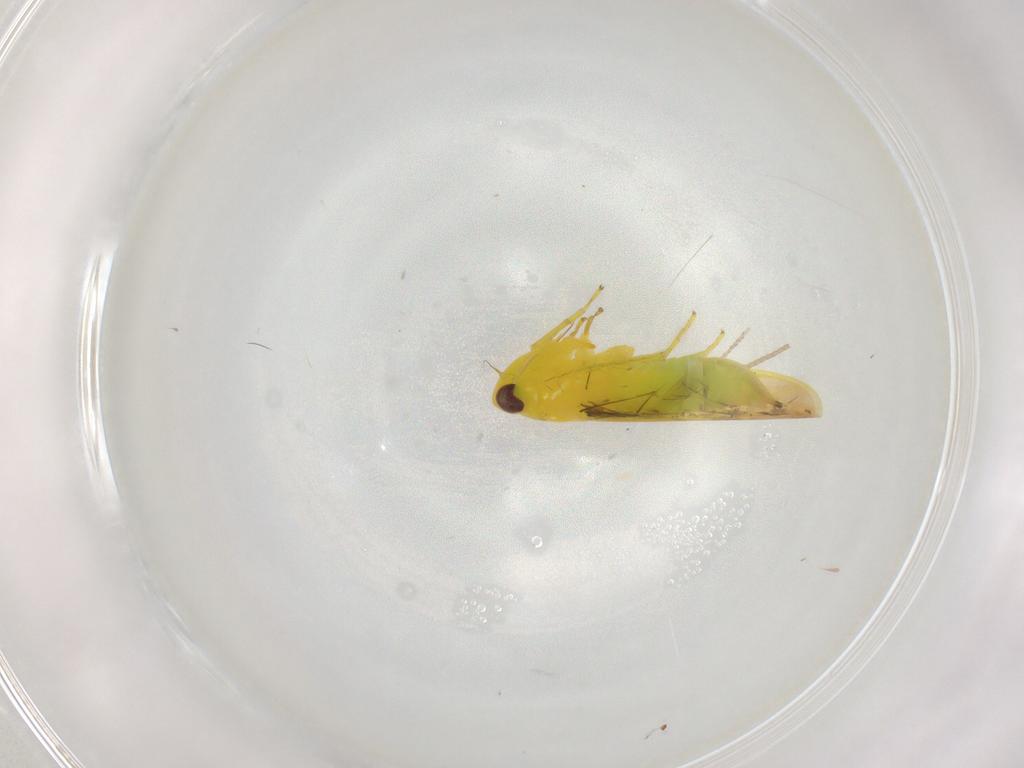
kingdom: Animalia
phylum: Arthropoda
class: Insecta
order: Hemiptera
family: Cicadellidae
